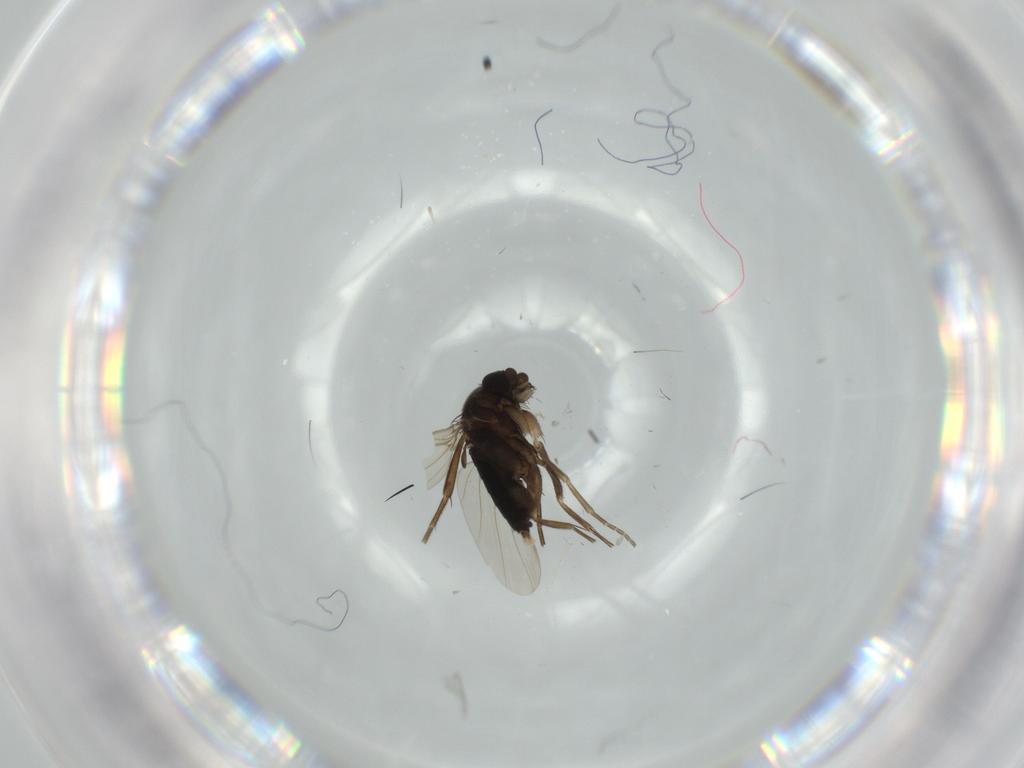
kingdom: Animalia
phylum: Arthropoda
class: Insecta
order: Diptera
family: Phoridae
